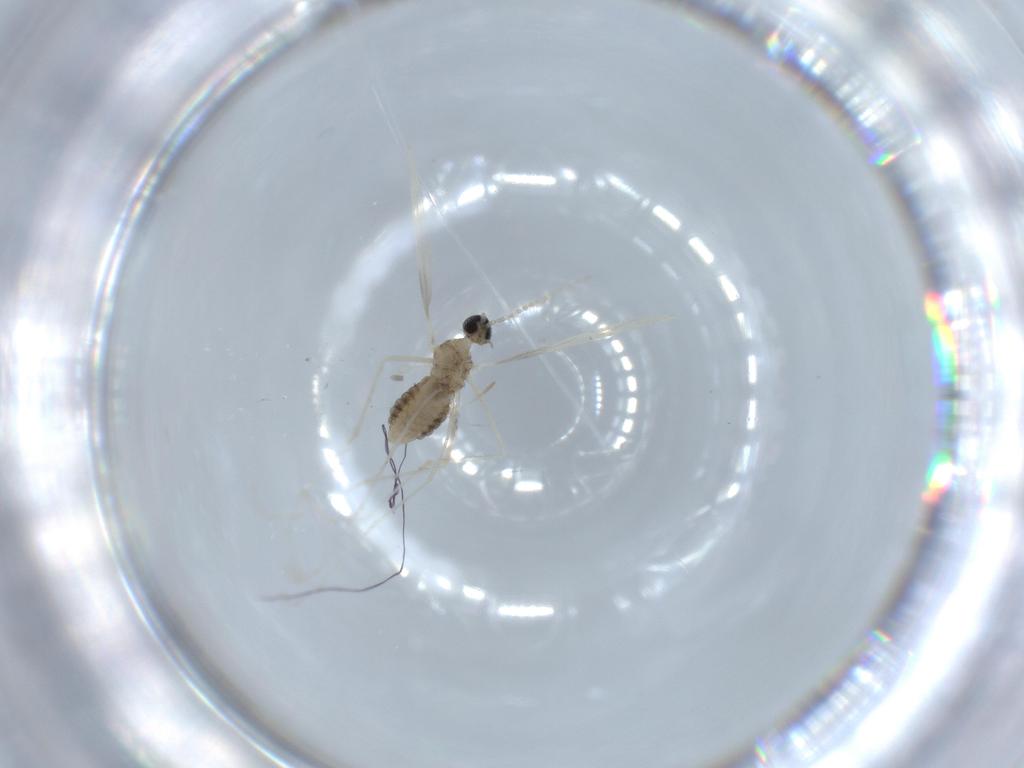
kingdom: Animalia
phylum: Arthropoda
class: Insecta
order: Diptera
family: Cecidomyiidae
